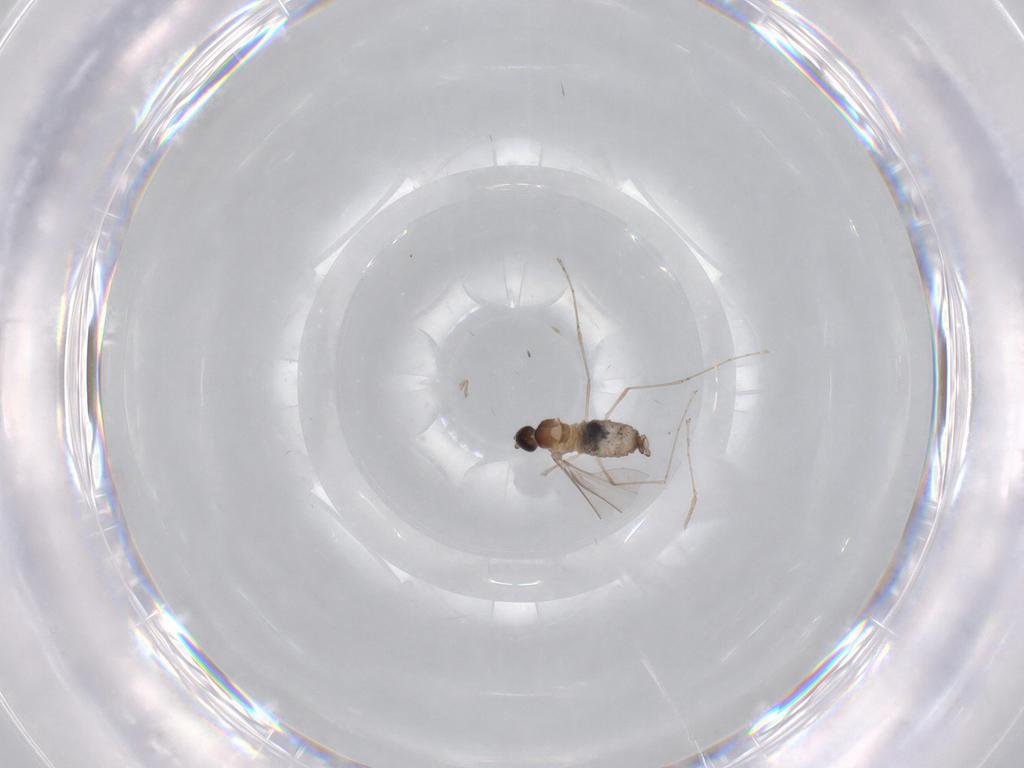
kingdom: Animalia
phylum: Arthropoda
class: Insecta
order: Diptera
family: Cecidomyiidae
